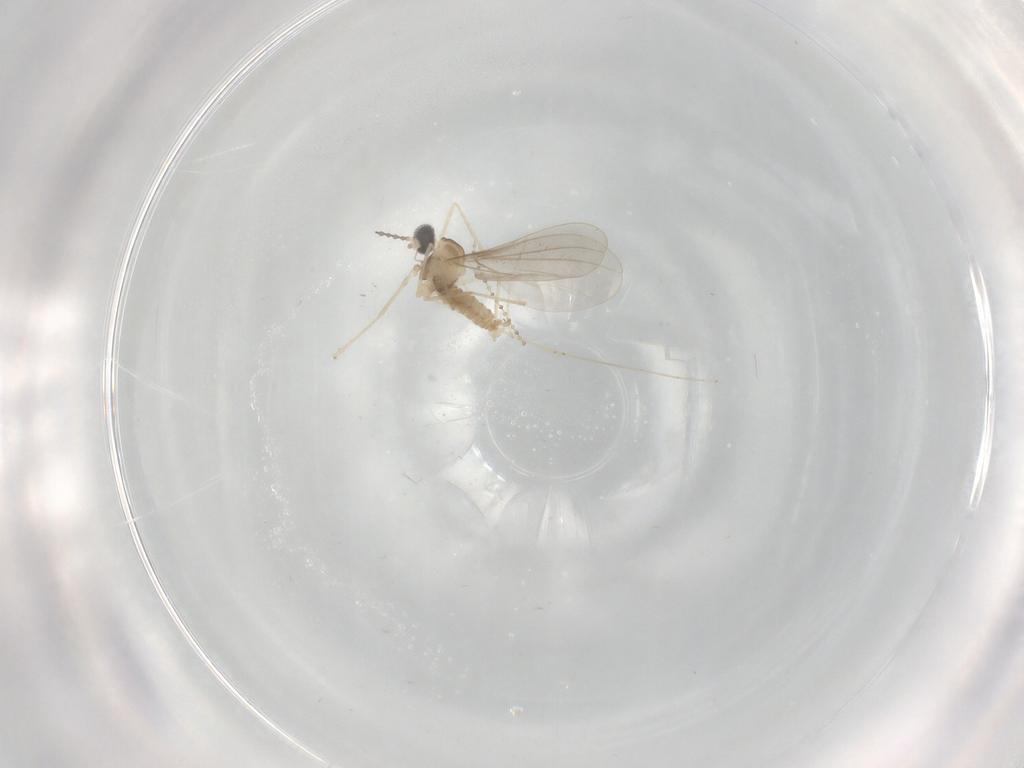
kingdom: Animalia
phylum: Arthropoda
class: Insecta
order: Diptera
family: Cecidomyiidae
